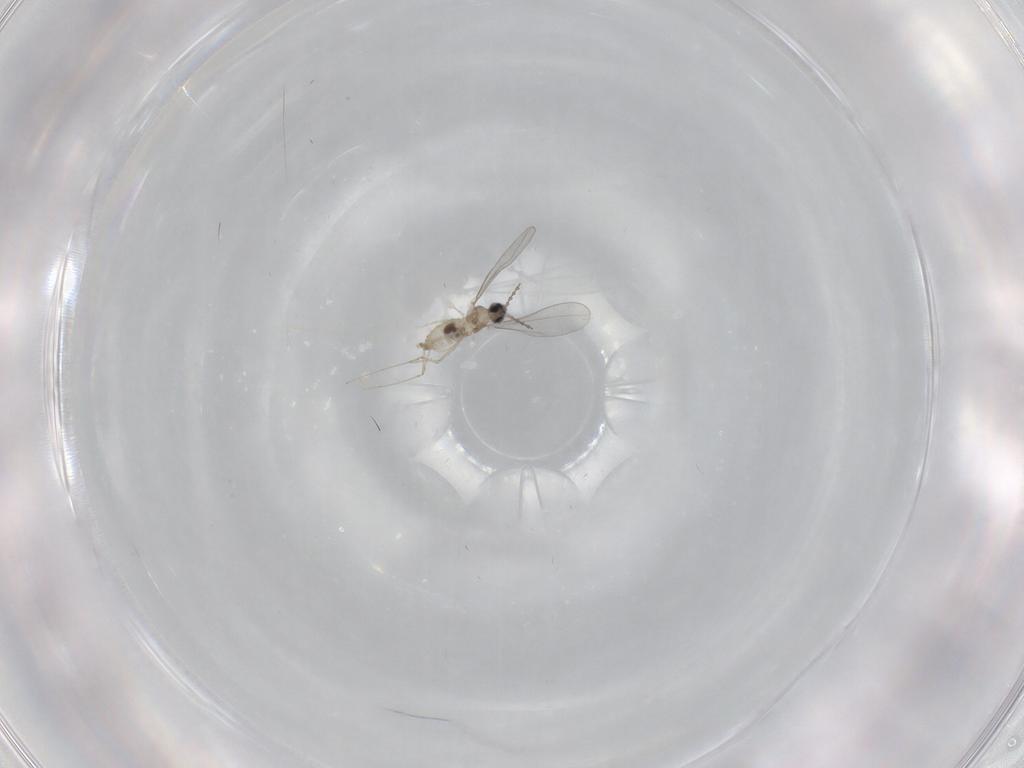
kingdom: Animalia
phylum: Arthropoda
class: Insecta
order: Diptera
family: Cecidomyiidae
